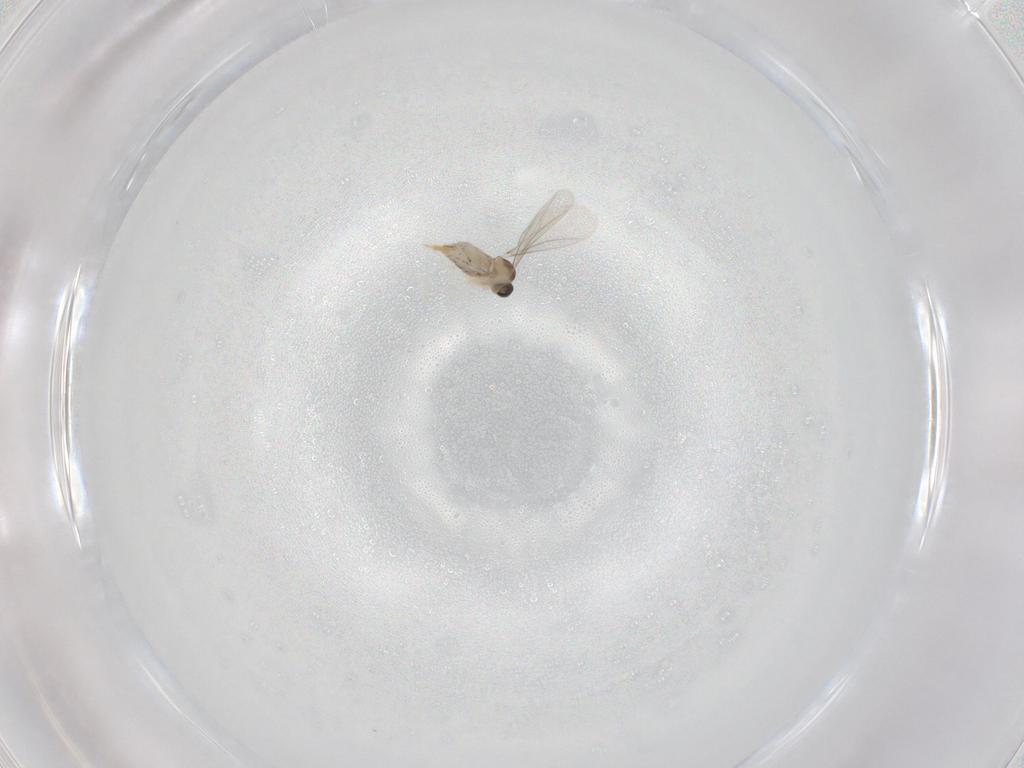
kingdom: Animalia
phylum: Arthropoda
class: Insecta
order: Diptera
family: Cecidomyiidae
